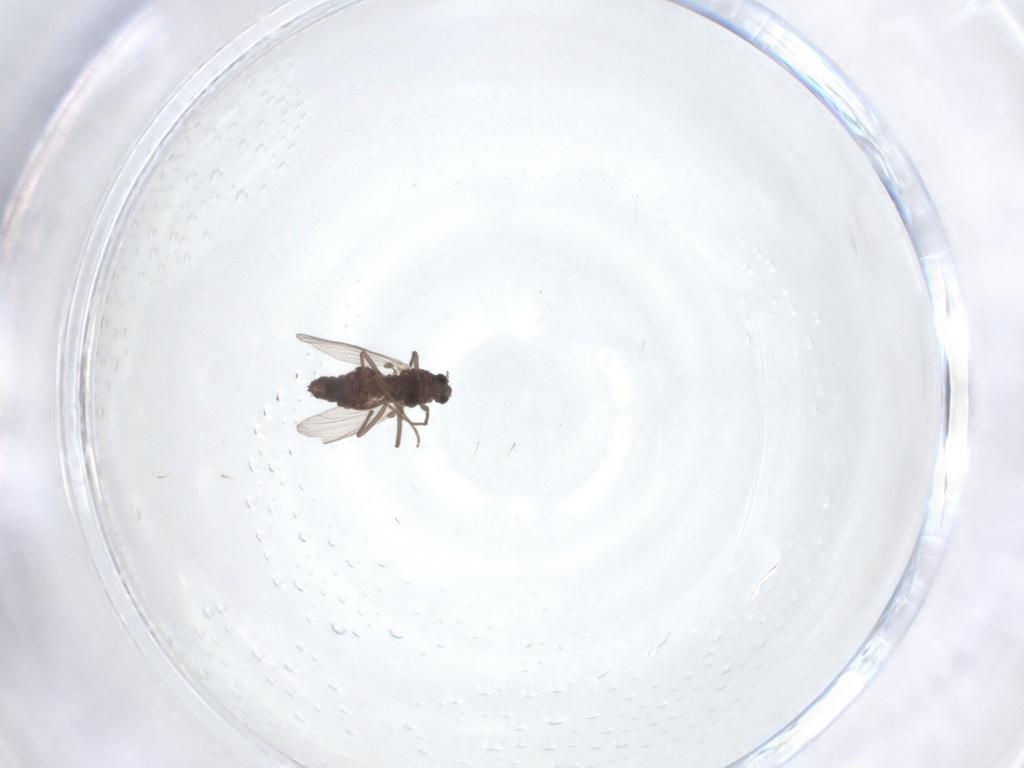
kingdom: Animalia
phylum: Arthropoda
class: Insecta
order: Diptera
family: Chironomidae
